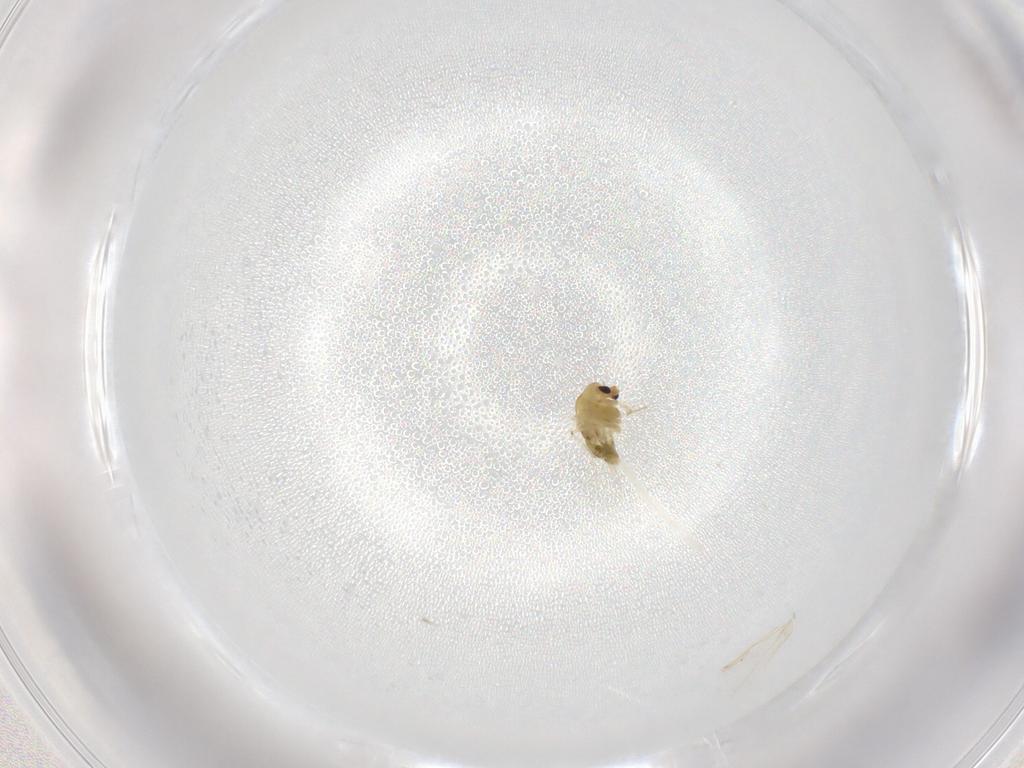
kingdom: Animalia
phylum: Arthropoda
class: Insecta
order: Diptera
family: Chironomidae
